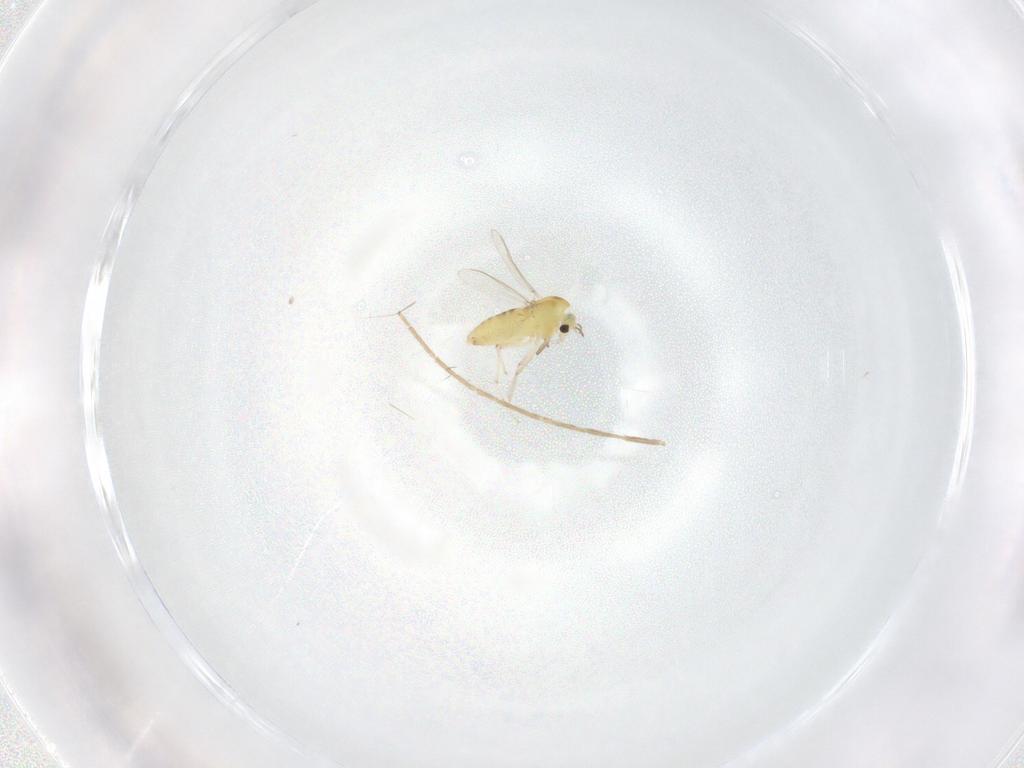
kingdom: Animalia
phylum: Arthropoda
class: Insecta
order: Diptera
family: Chironomidae
